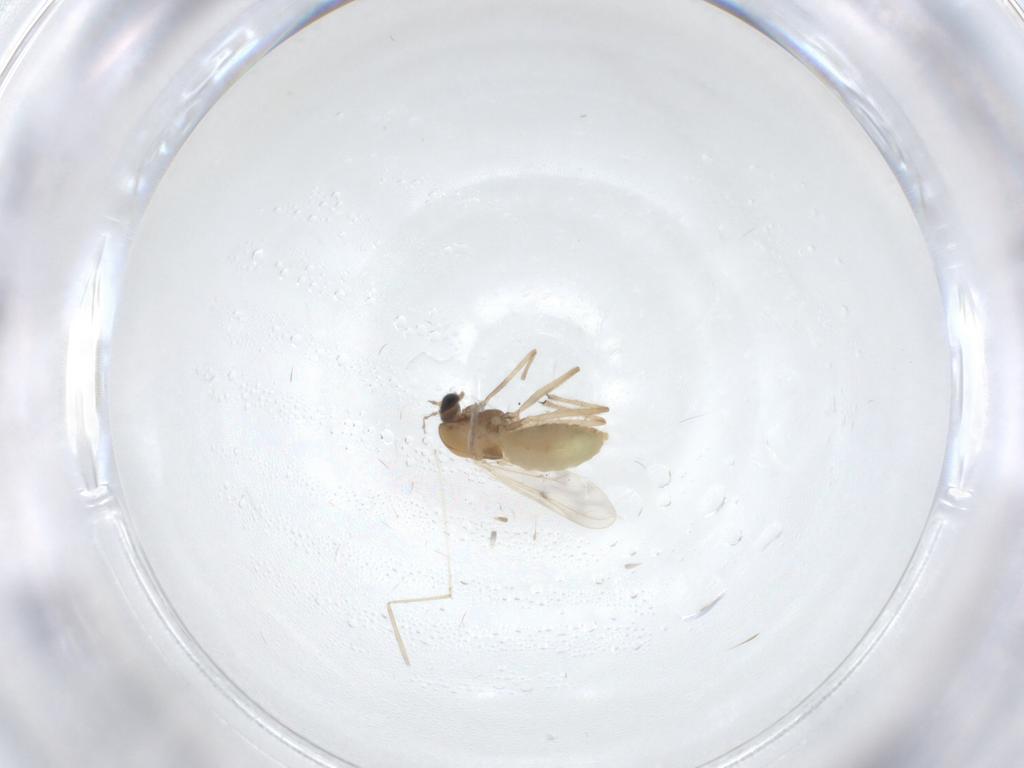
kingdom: Animalia
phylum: Arthropoda
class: Insecta
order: Diptera
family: Chironomidae
